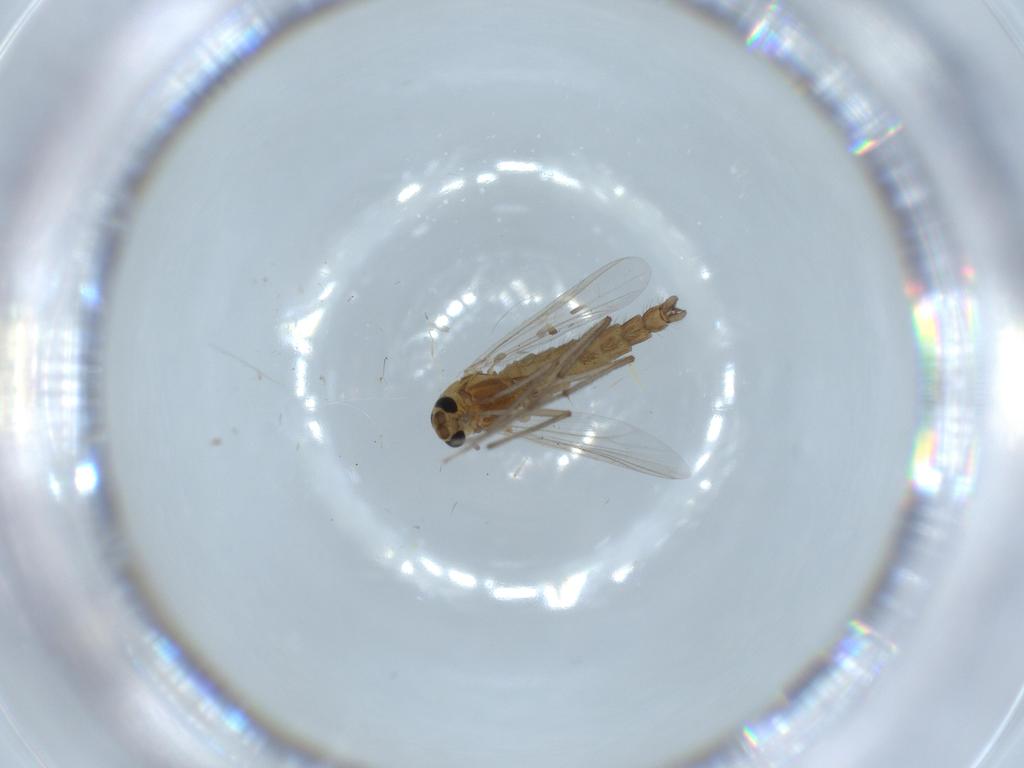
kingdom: Animalia
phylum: Arthropoda
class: Insecta
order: Diptera
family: Chironomidae
